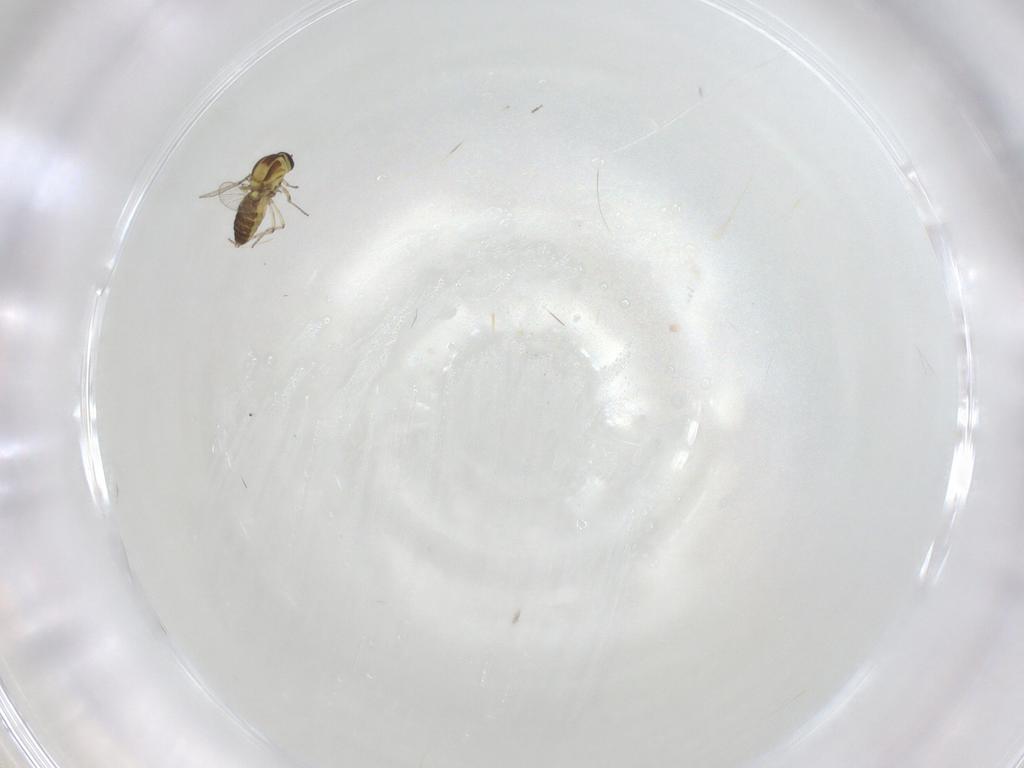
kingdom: Animalia
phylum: Arthropoda
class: Insecta
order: Diptera
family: Ceratopogonidae
